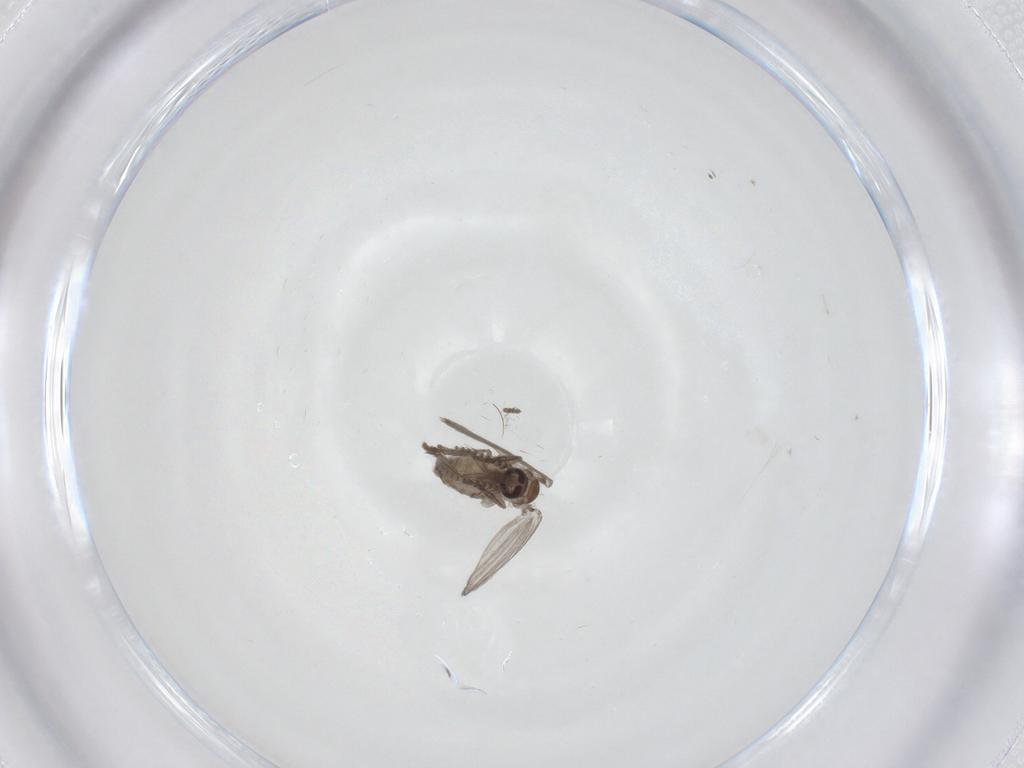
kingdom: Animalia
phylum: Arthropoda
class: Insecta
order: Diptera
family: Psychodidae
